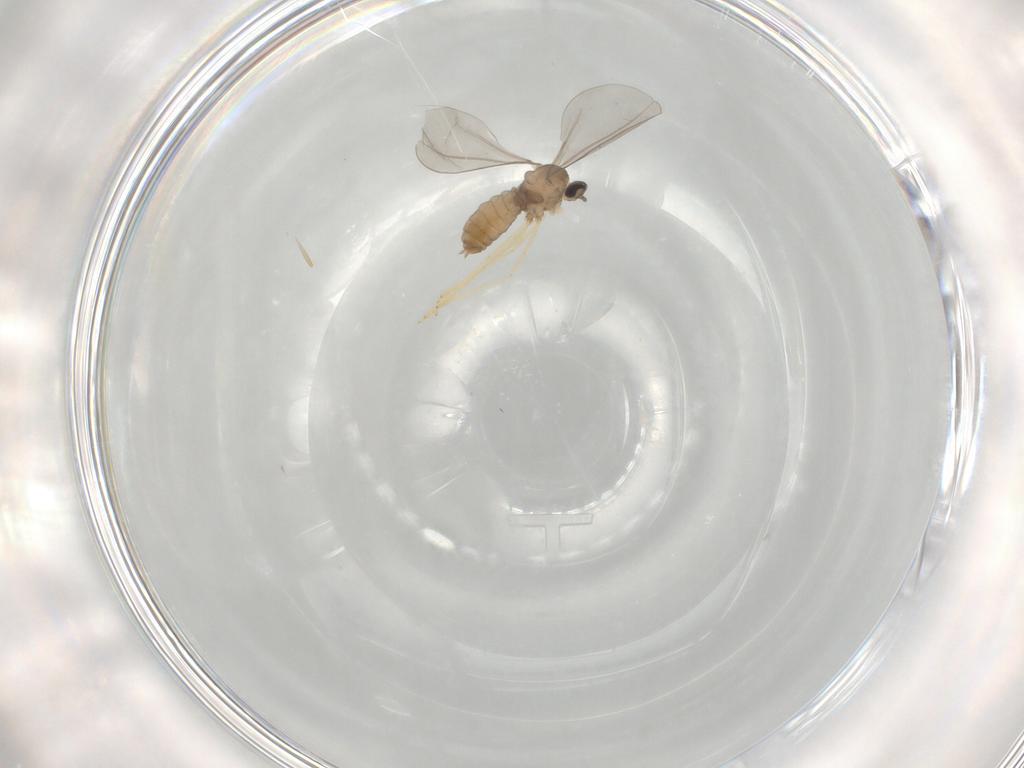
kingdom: Animalia
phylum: Arthropoda
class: Insecta
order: Diptera
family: Sciaridae
